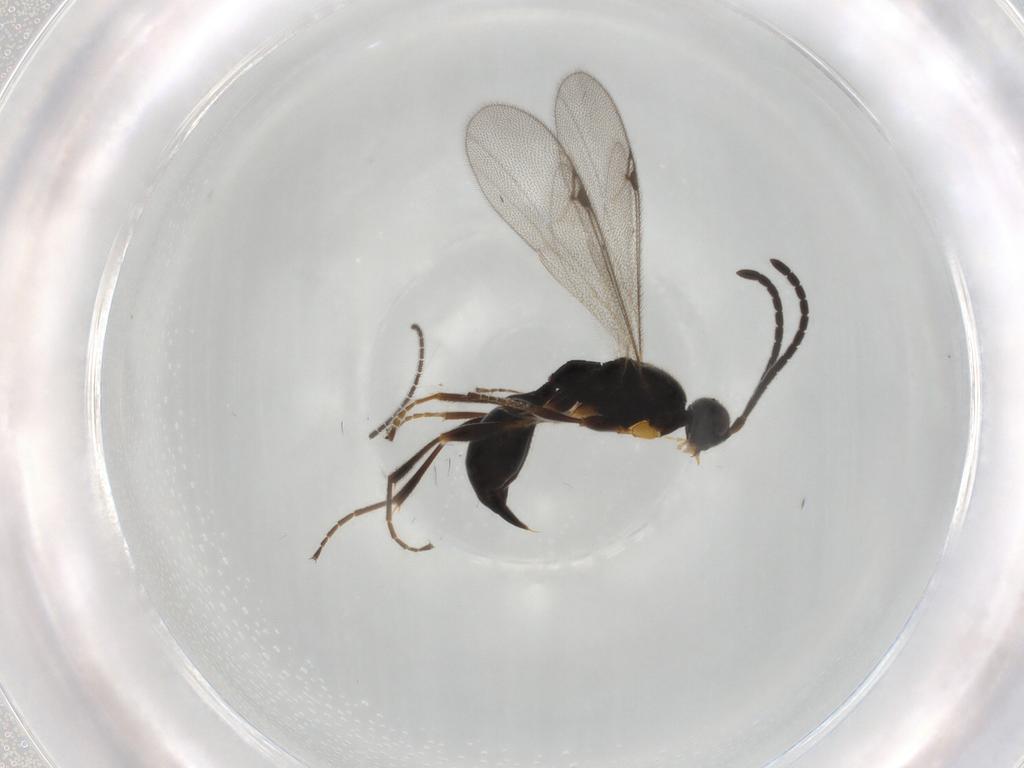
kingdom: Animalia
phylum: Arthropoda
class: Insecta
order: Hymenoptera
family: Proctotrupidae
